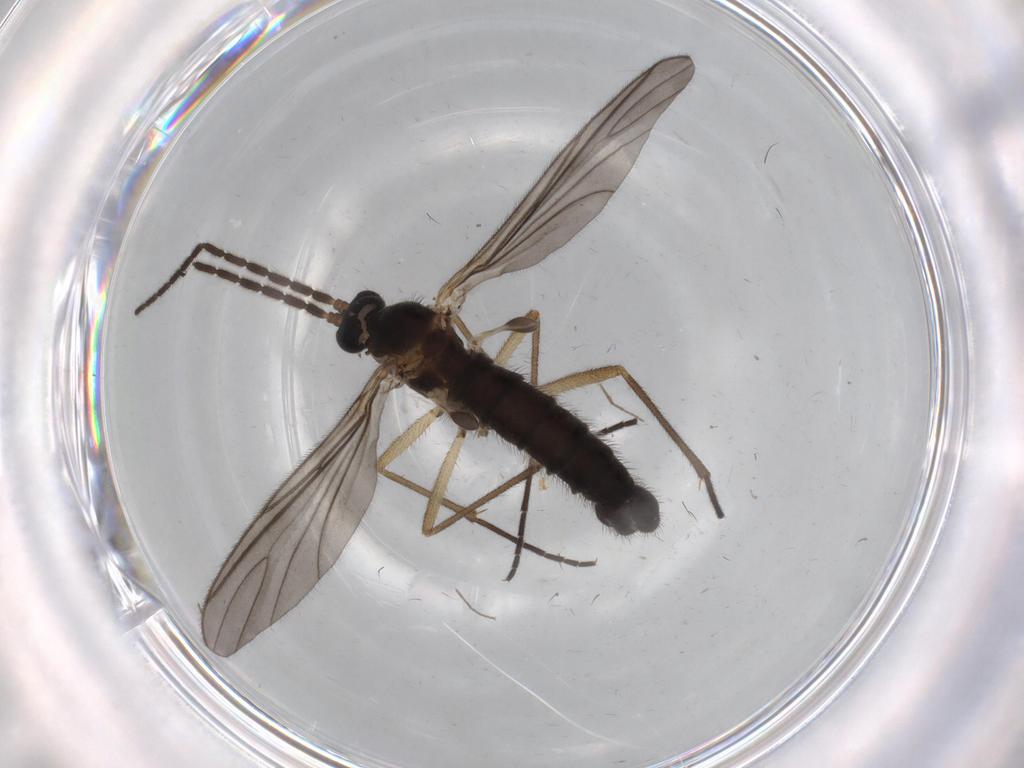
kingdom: Animalia
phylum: Arthropoda
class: Insecta
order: Diptera
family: Sciaridae
